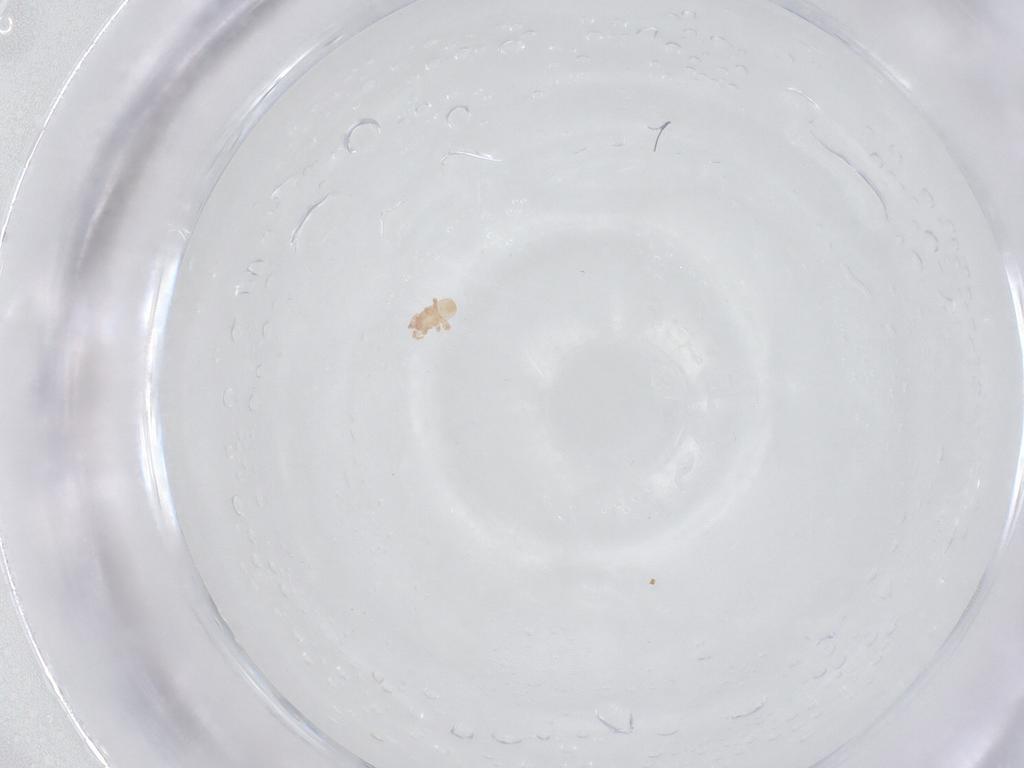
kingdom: Animalia
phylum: Arthropoda
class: Arachnida
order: Mesostigmata
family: Digamasellidae
